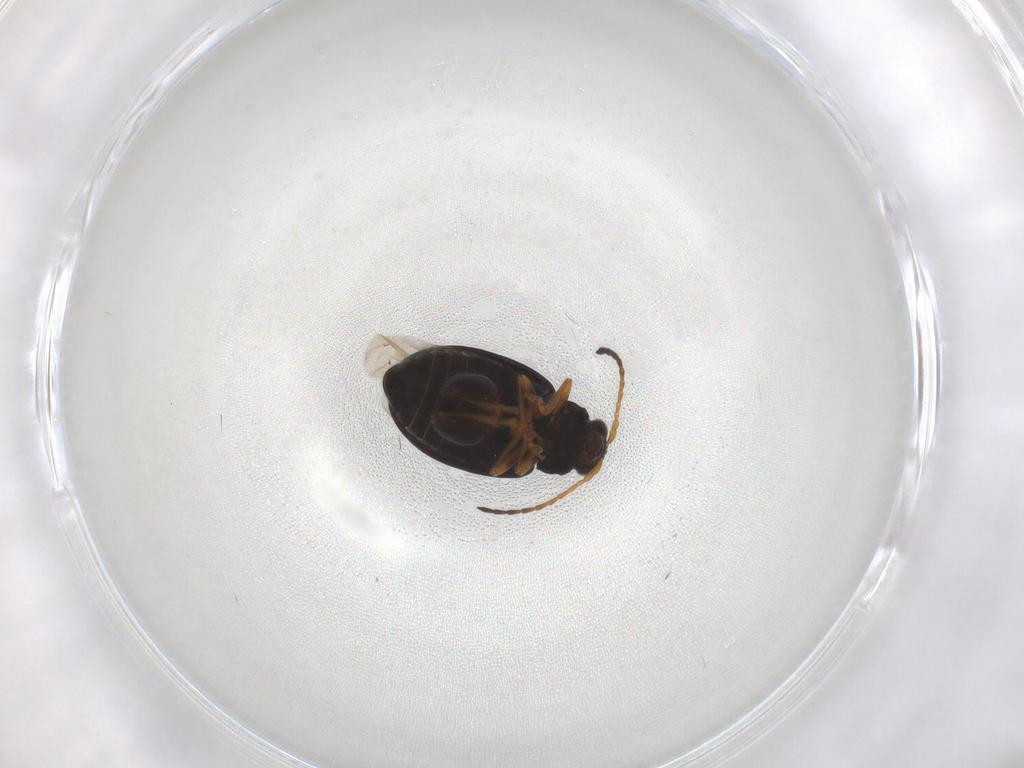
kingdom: Animalia
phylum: Arthropoda
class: Insecta
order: Coleoptera
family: Chrysomelidae
